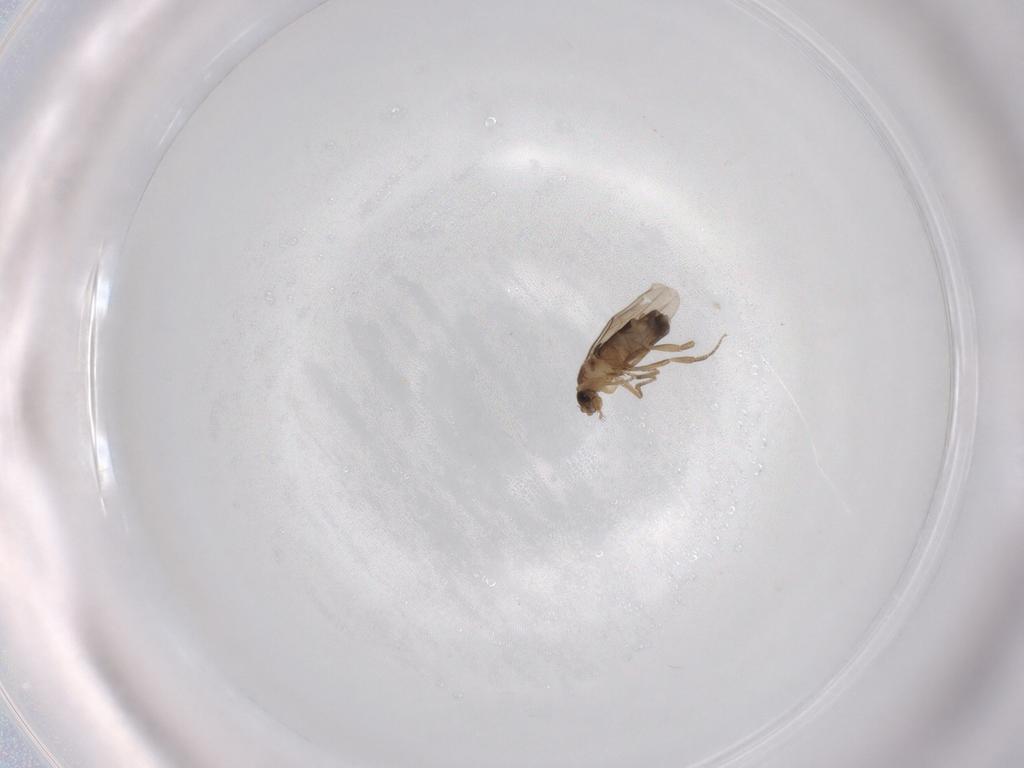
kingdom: Animalia
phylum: Arthropoda
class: Insecta
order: Diptera
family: Phoridae
